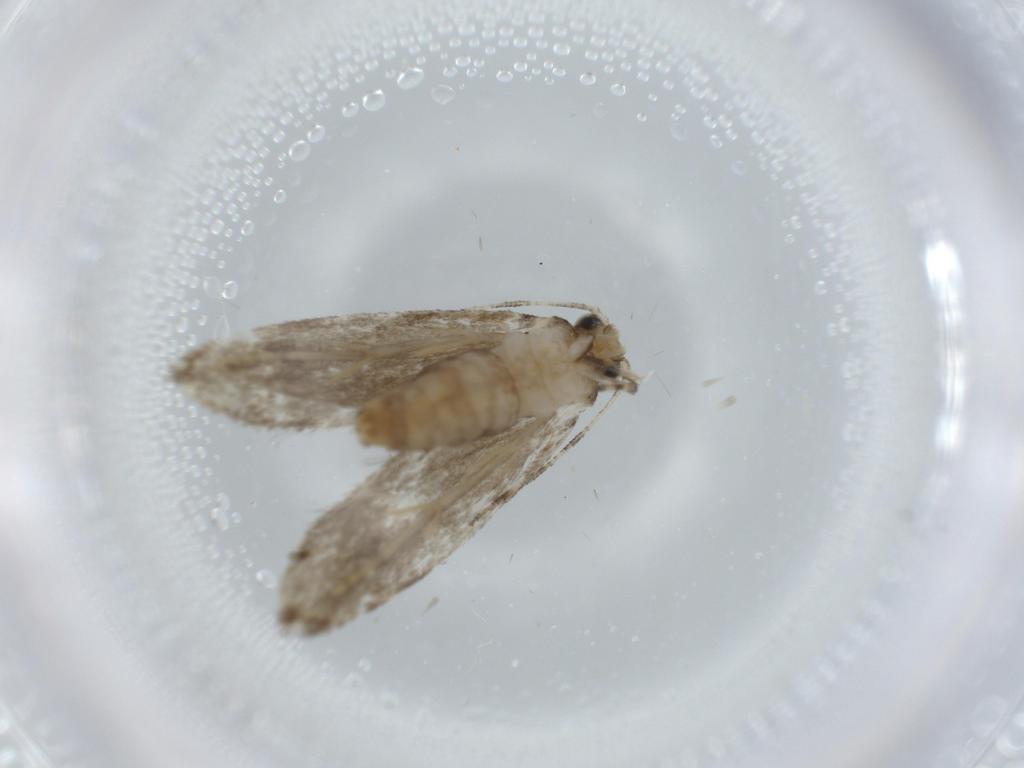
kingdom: Animalia
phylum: Arthropoda
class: Insecta
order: Lepidoptera
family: Tineidae
